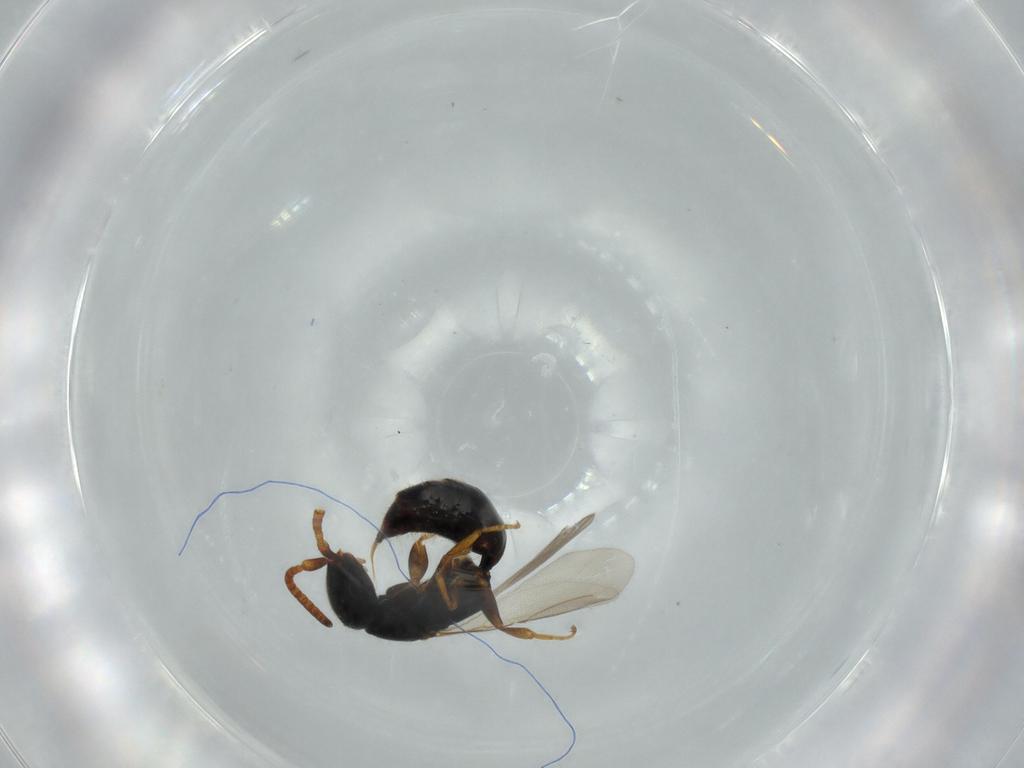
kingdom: Animalia
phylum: Arthropoda
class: Insecta
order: Hymenoptera
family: Bethylidae
